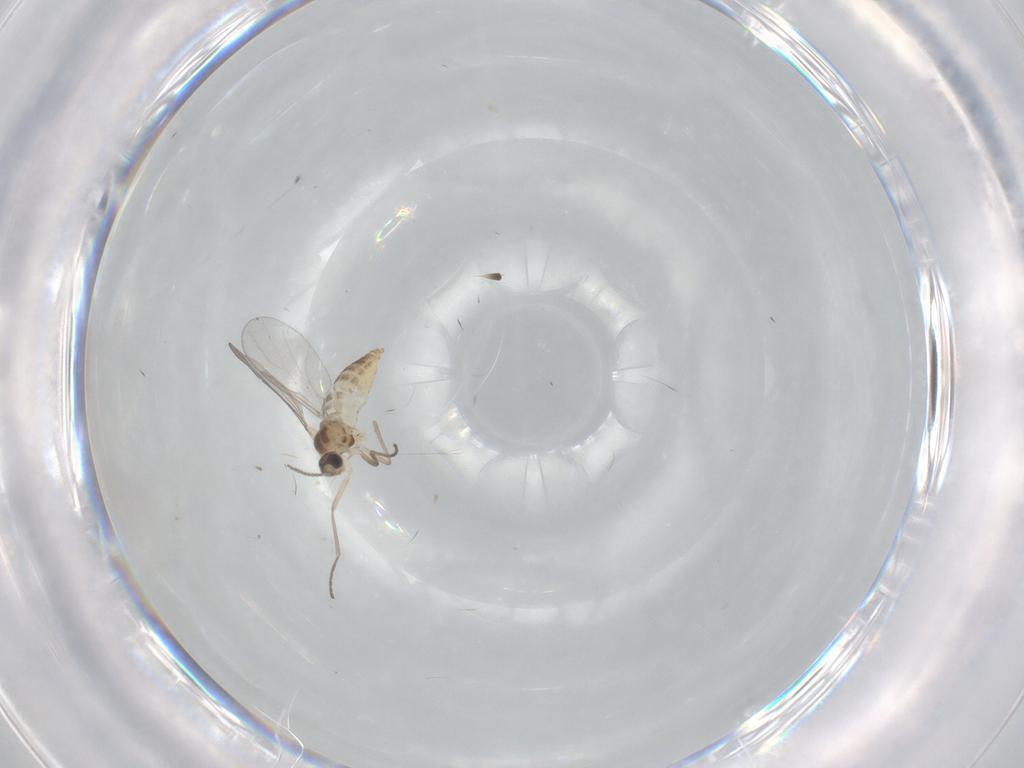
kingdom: Animalia
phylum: Arthropoda
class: Insecta
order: Diptera
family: Cecidomyiidae
